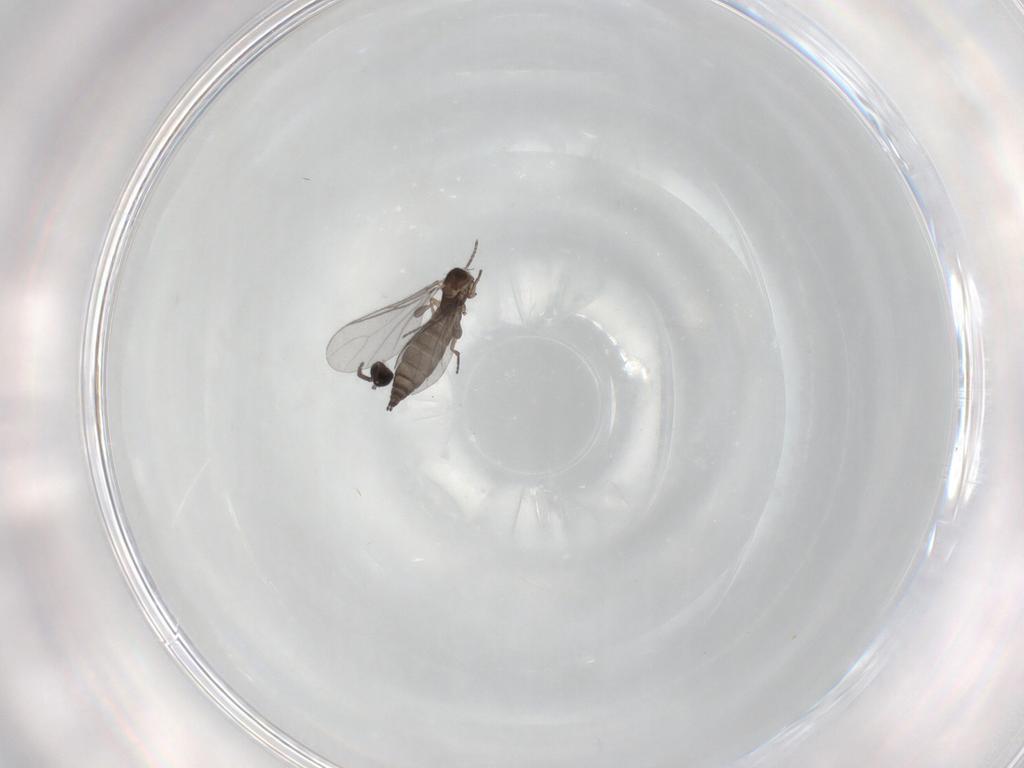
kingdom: Animalia
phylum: Arthropoda
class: Insecta
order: Diptera
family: Sciaridae
